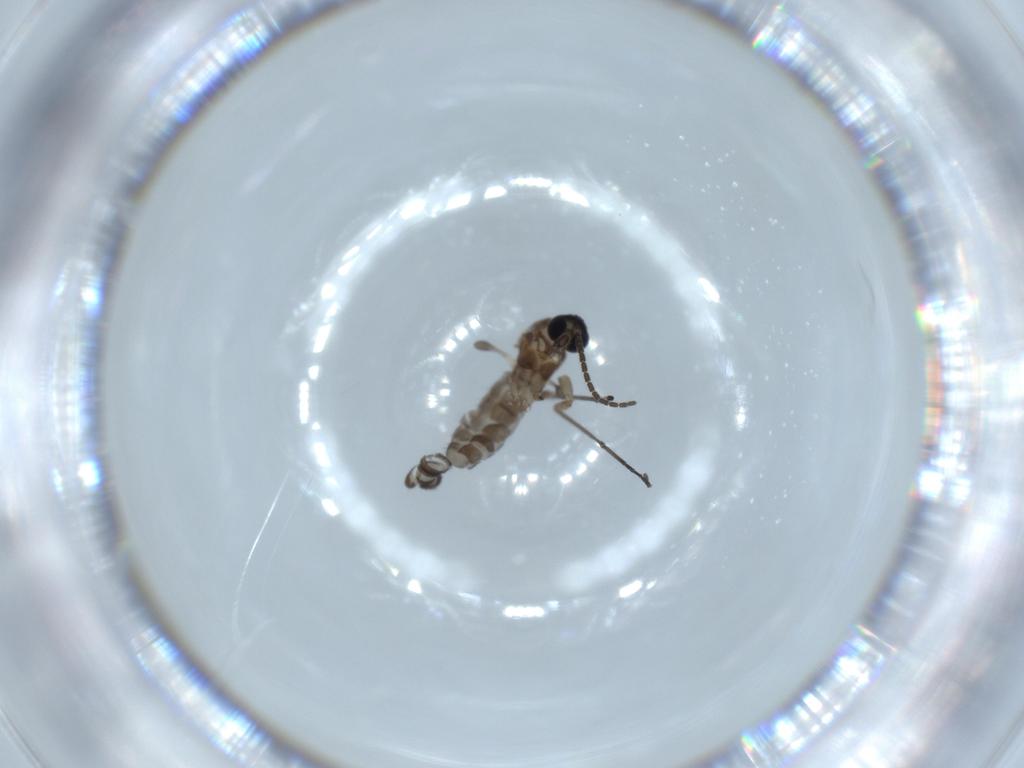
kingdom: Animalia
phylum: Arthropoda
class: Insecta
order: Diptera
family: Sciaridae
